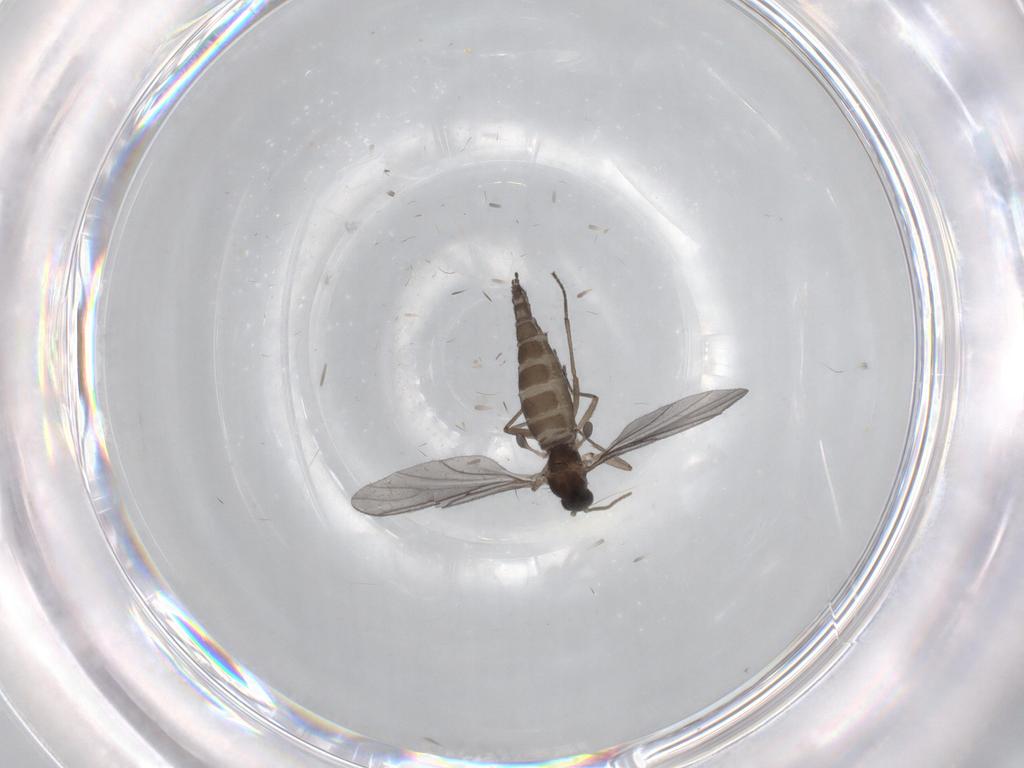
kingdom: Animalia
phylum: Arthropoda
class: Insecta
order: Diptera
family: Sciaridae
